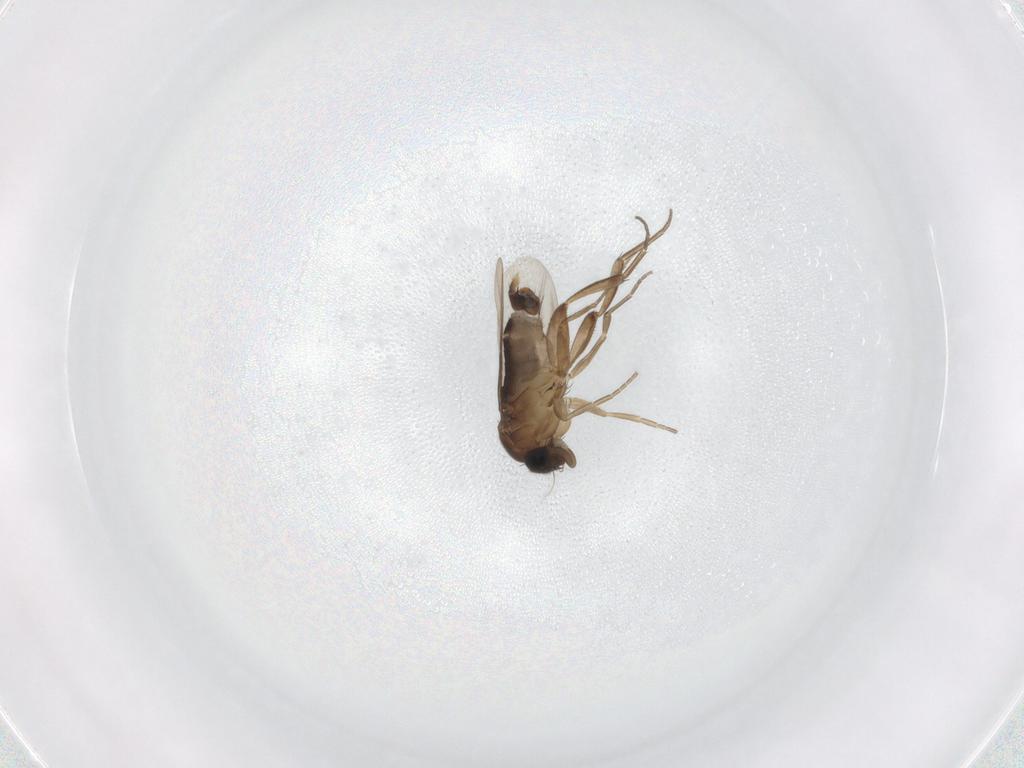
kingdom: Animalia
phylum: Arthropoda
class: Insecta
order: Diptera
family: Phoridae
